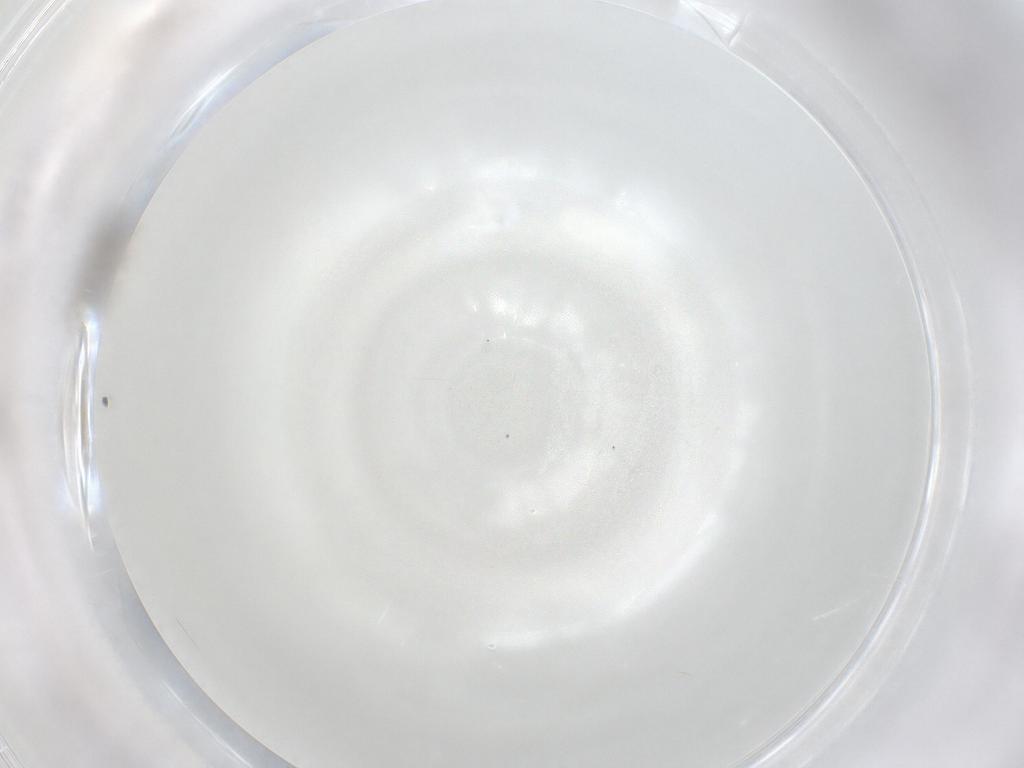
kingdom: Animalia
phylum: Arthropoda
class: Insecta
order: Diptera
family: Cecidomyiidae
